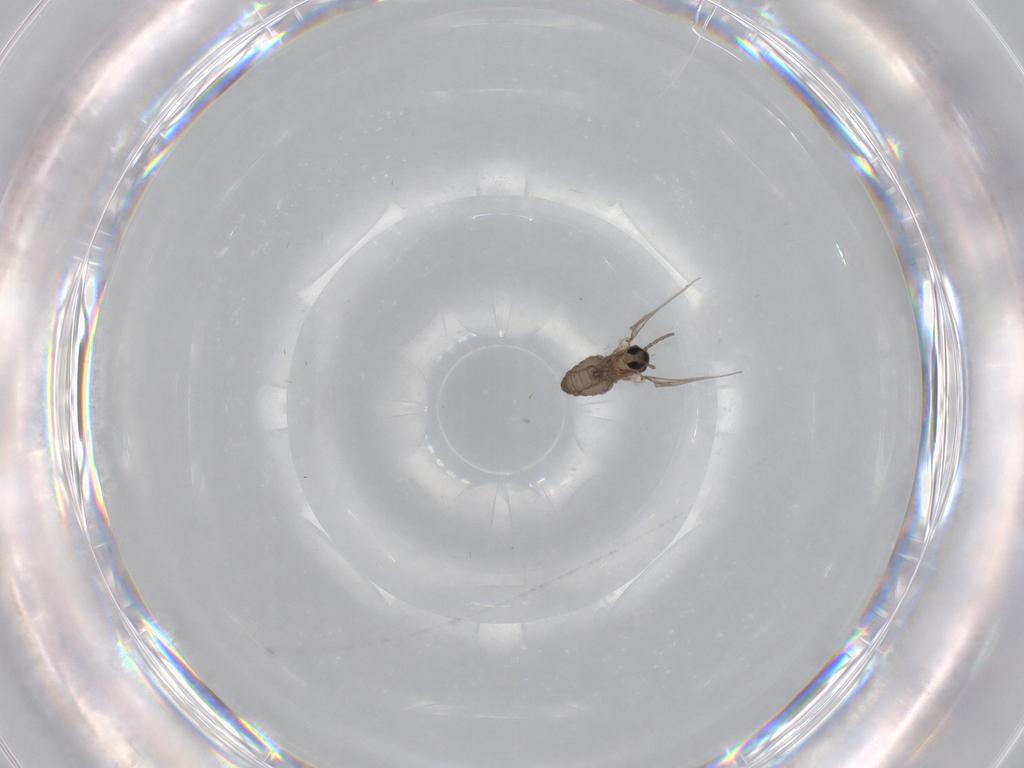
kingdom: Animalia
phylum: Arthropoda
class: Insecta
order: Diptera
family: Cecidomyiidae
